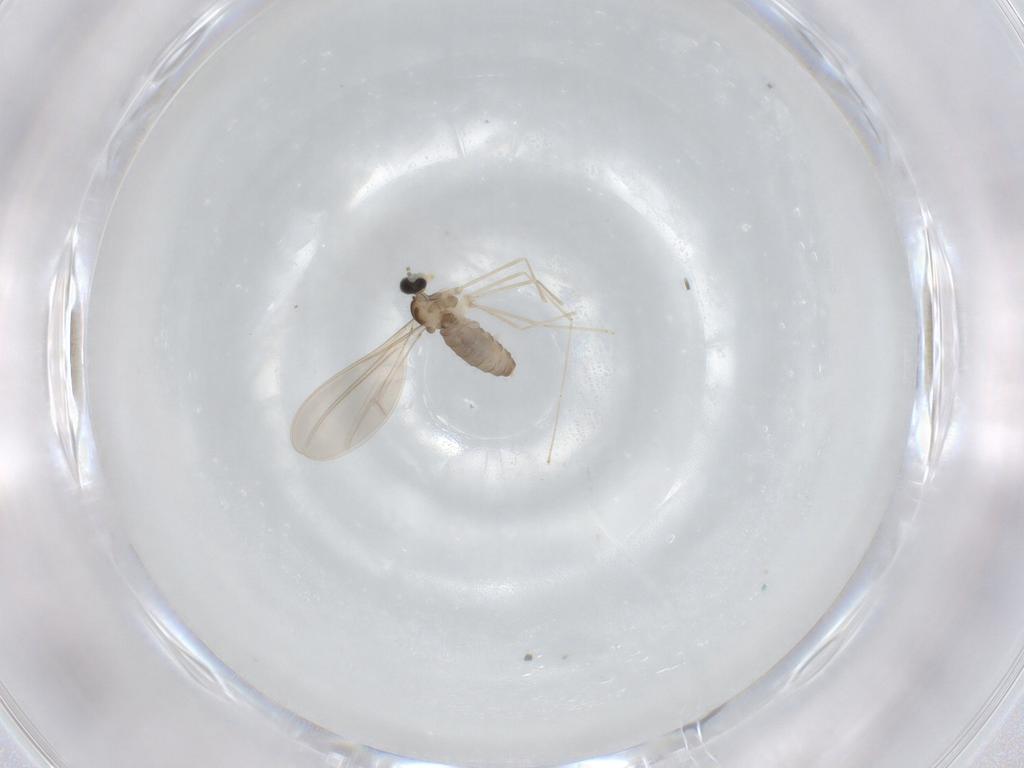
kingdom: Animalia
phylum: Arthropoda
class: Insecta
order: Diptera
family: Cecidomyiidae
